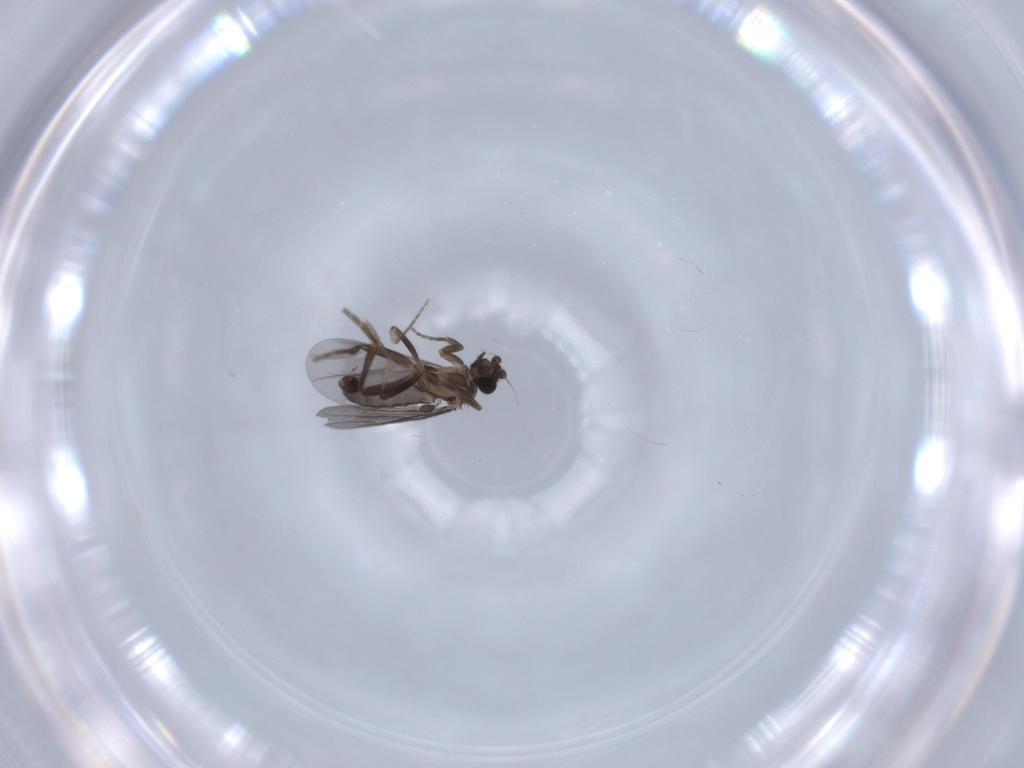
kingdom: Animalia
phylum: Arthropoda
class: Insecta
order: Diptera
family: Phoridae
